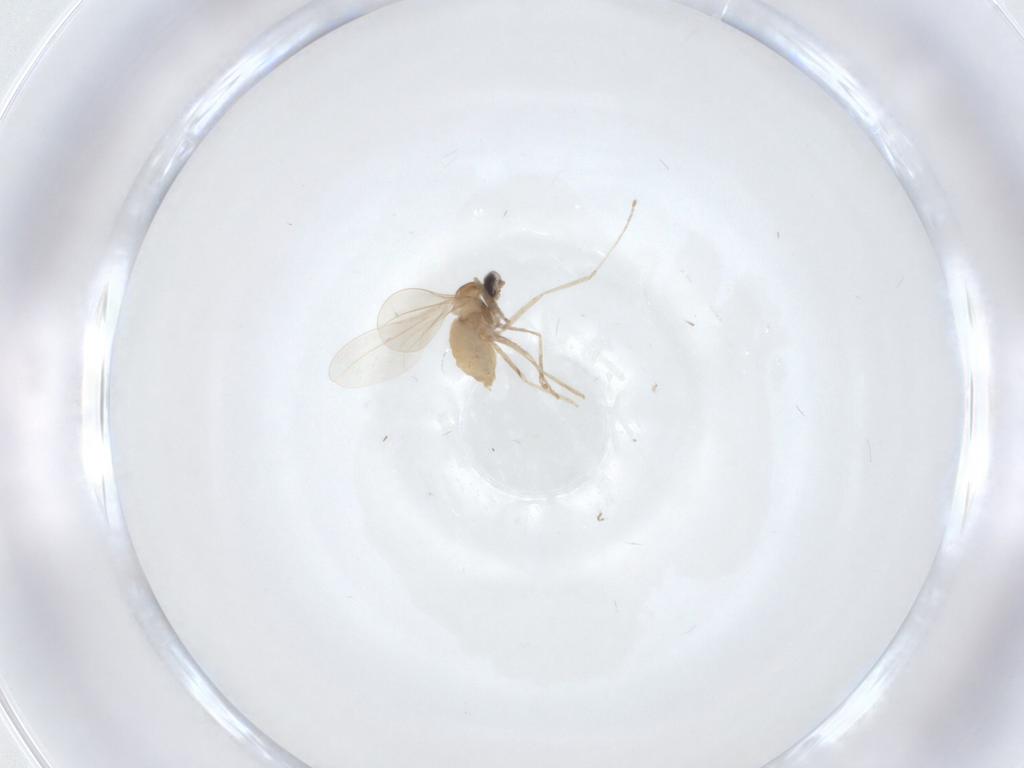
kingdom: Animalia
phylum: Arthropoda
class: Insecta
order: Diptera
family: Cecidomyiidae
